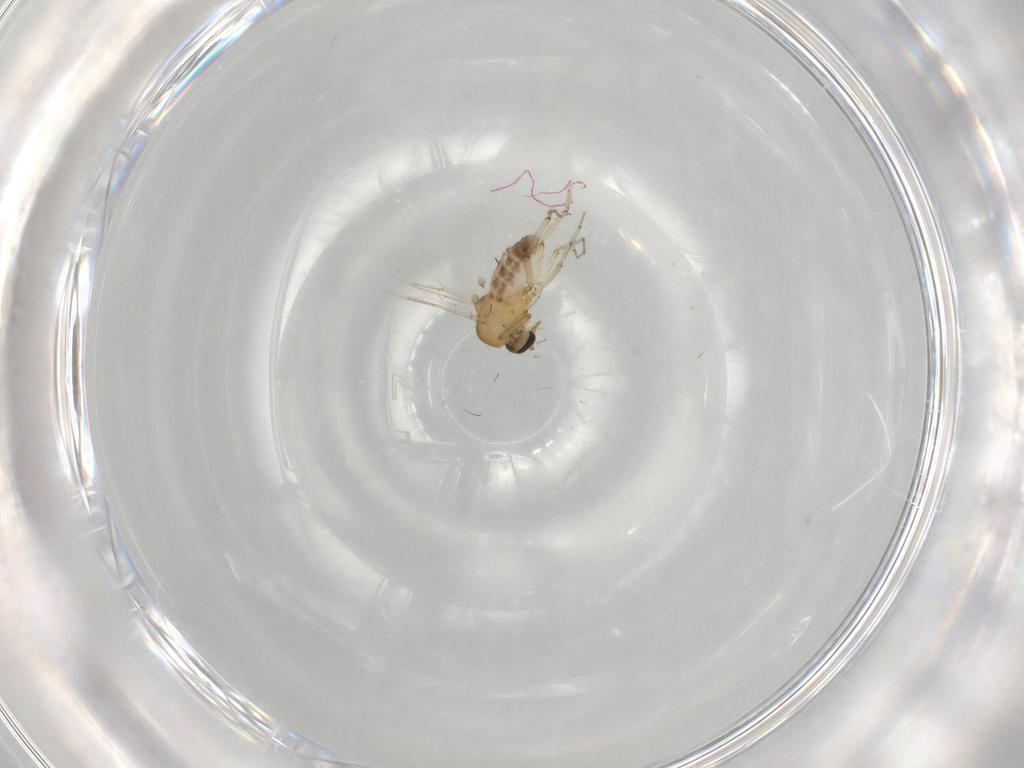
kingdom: Animalia
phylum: Arthropoda
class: Insecta
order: Diptera
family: Ceratopogonidae
